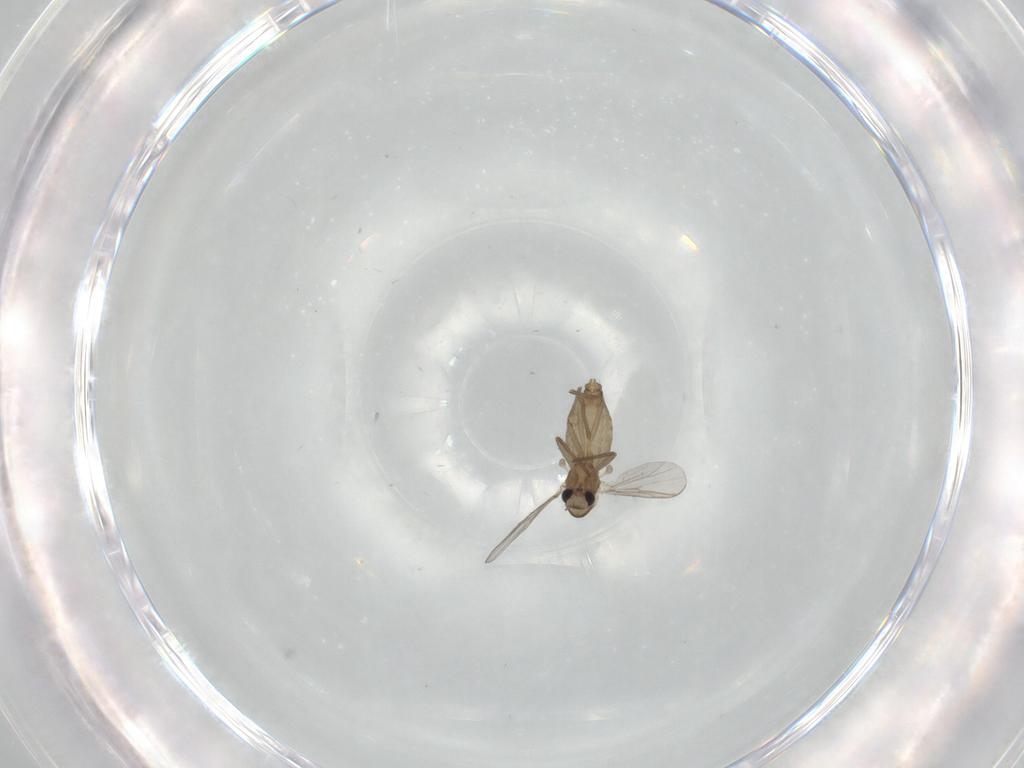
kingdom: Animalia
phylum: Arthropoda
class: Insecta
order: Diptera
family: Chironomidae
